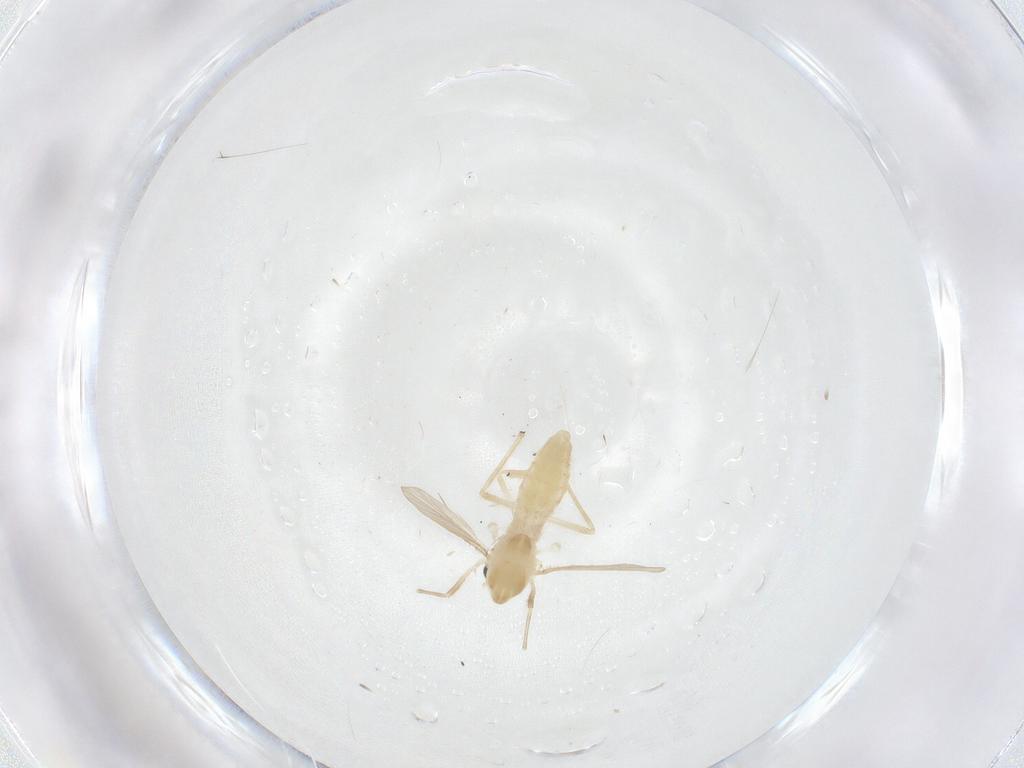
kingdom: Animalia
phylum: Arthropoda
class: Insecta
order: Diptera
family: Chironomidae
